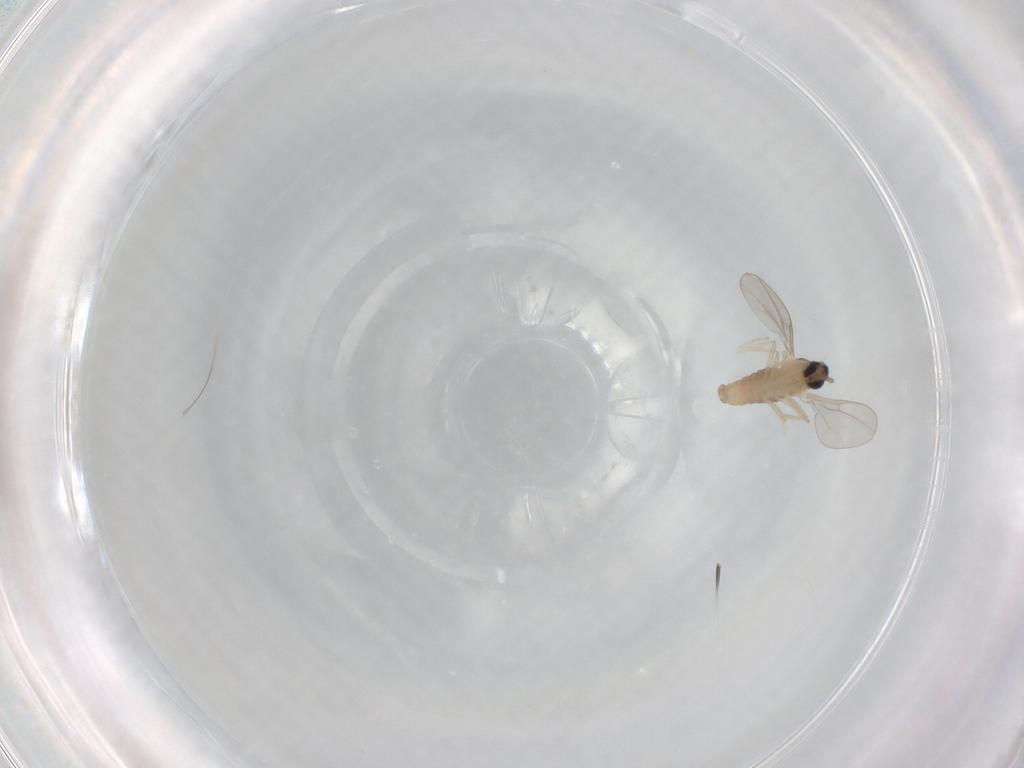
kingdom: Animalia
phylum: Arthropoda
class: Insecta
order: Diptera
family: Cecidomyiidae
